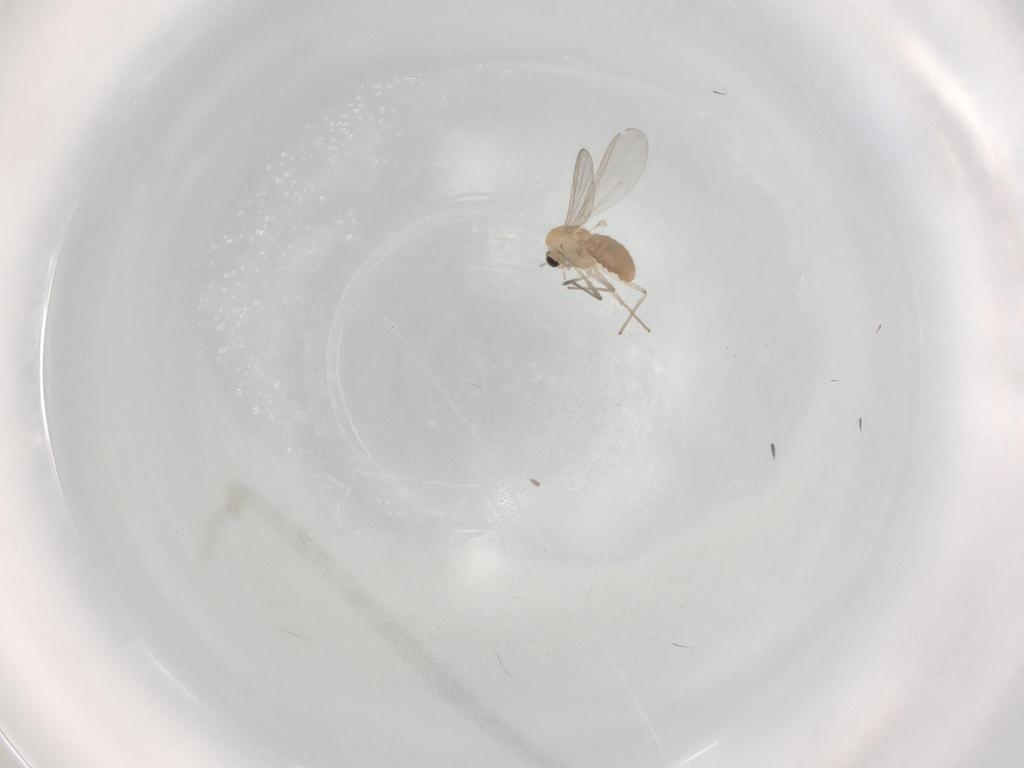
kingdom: Animalia
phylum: Arthropoda
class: Insecta
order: Diptera
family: Chironomidae
